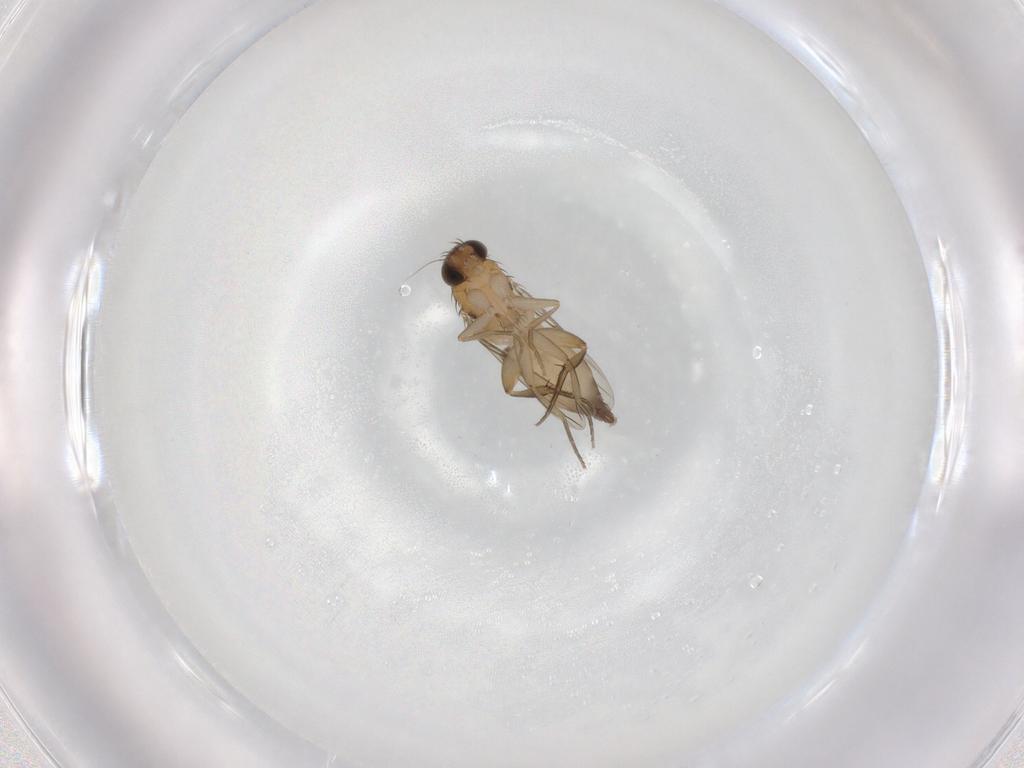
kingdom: Animalia
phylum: Arthropoda
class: Insecta
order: Diptera
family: Phoridae
